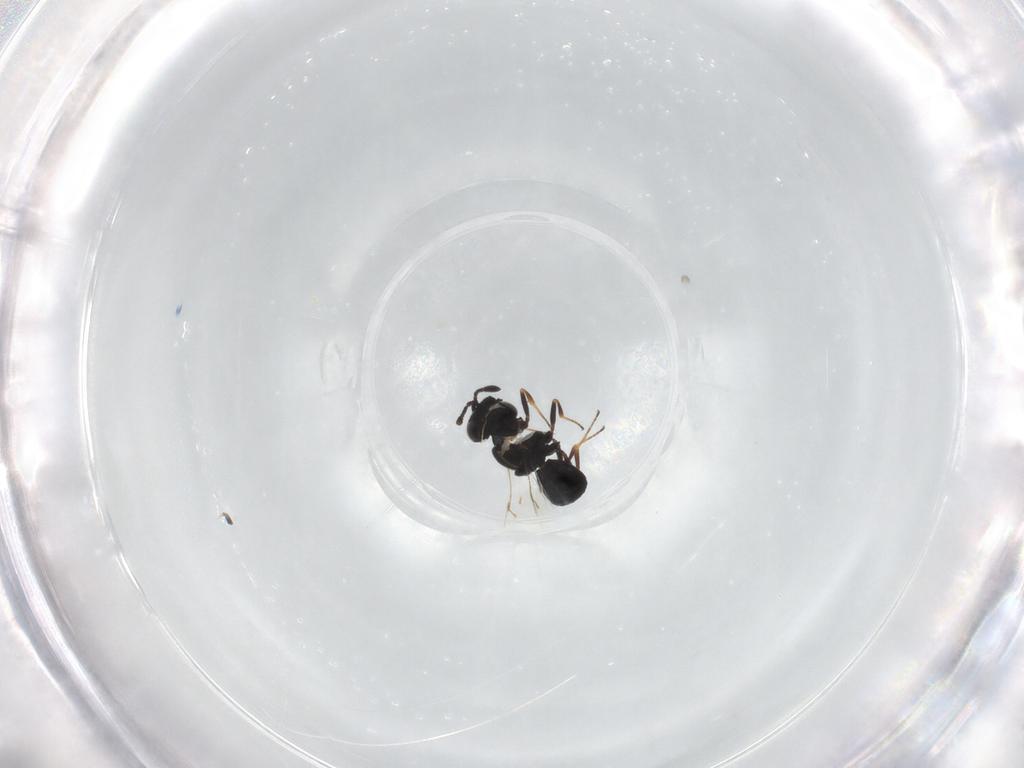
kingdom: Animalia
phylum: Arthropoda
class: Insecta
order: Hymenoptera
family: Scelionidae
